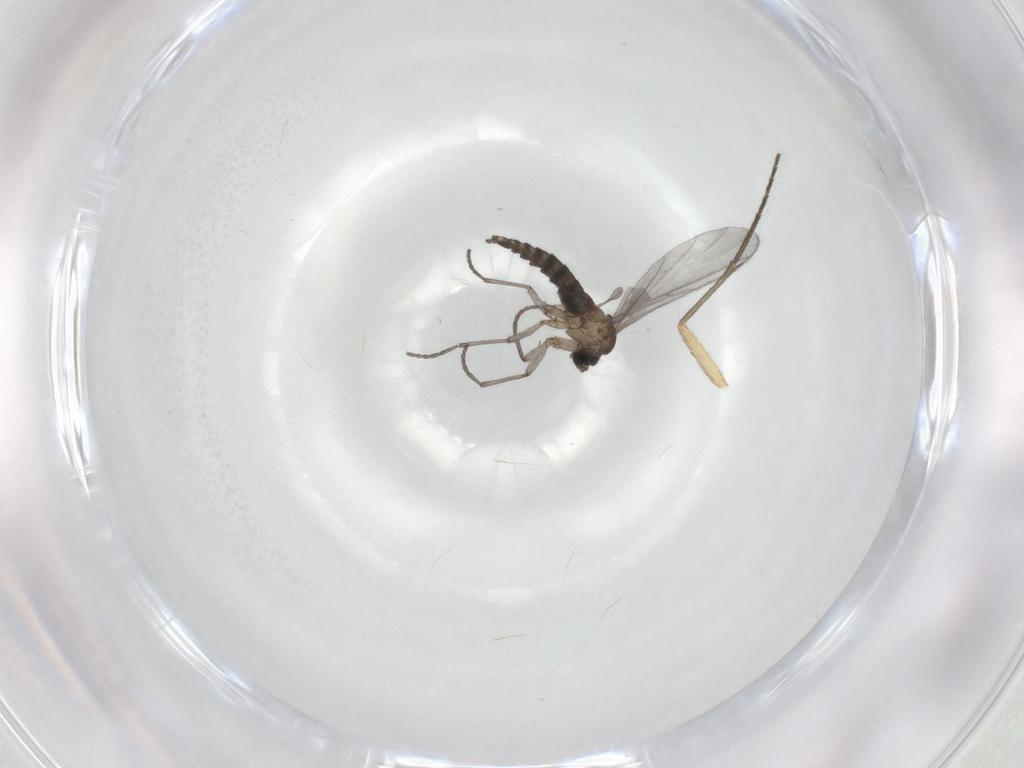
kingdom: Animalia
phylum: Arthropoda
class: Insecta
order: Diptera
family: Sciaridae
